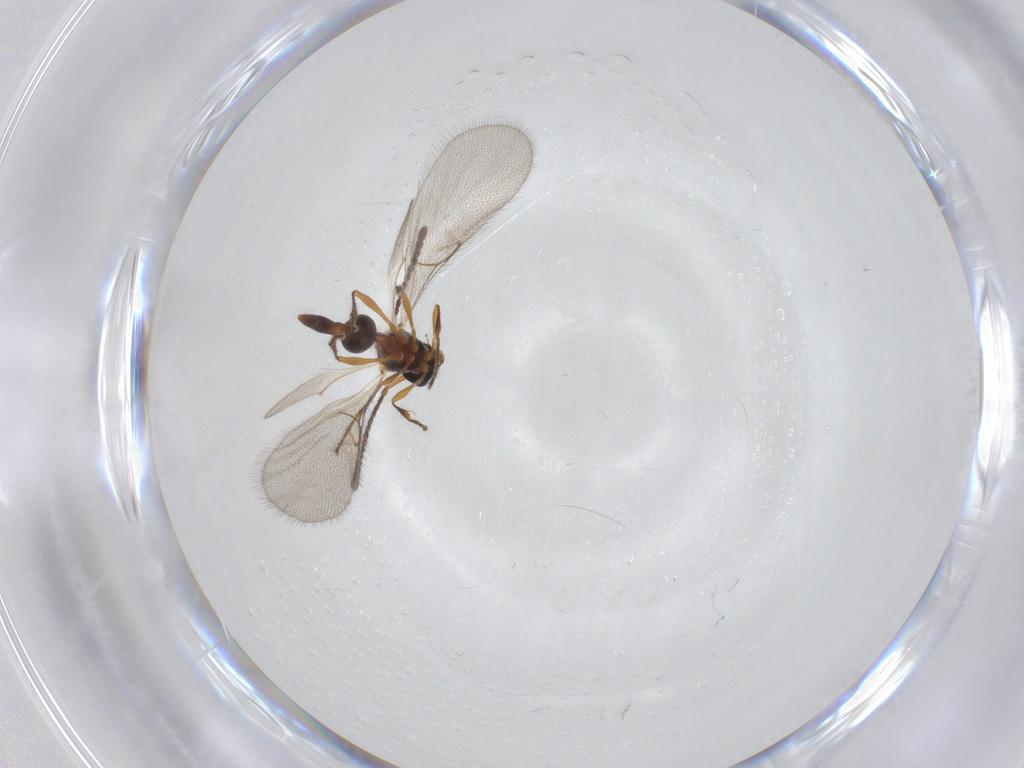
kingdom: Animalia
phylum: Arthropoda
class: Insecta
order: Hymenoptera
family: Diapriidae
